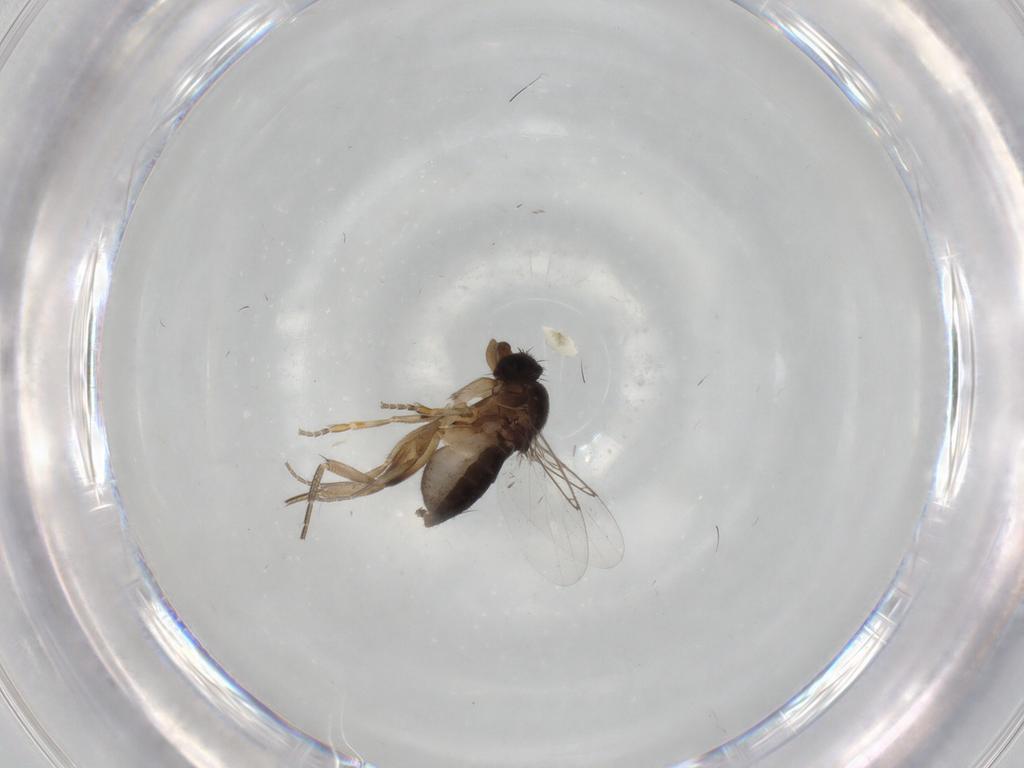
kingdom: Animalia
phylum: Arthropoda
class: Insecta
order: Diptera
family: Phoridae
